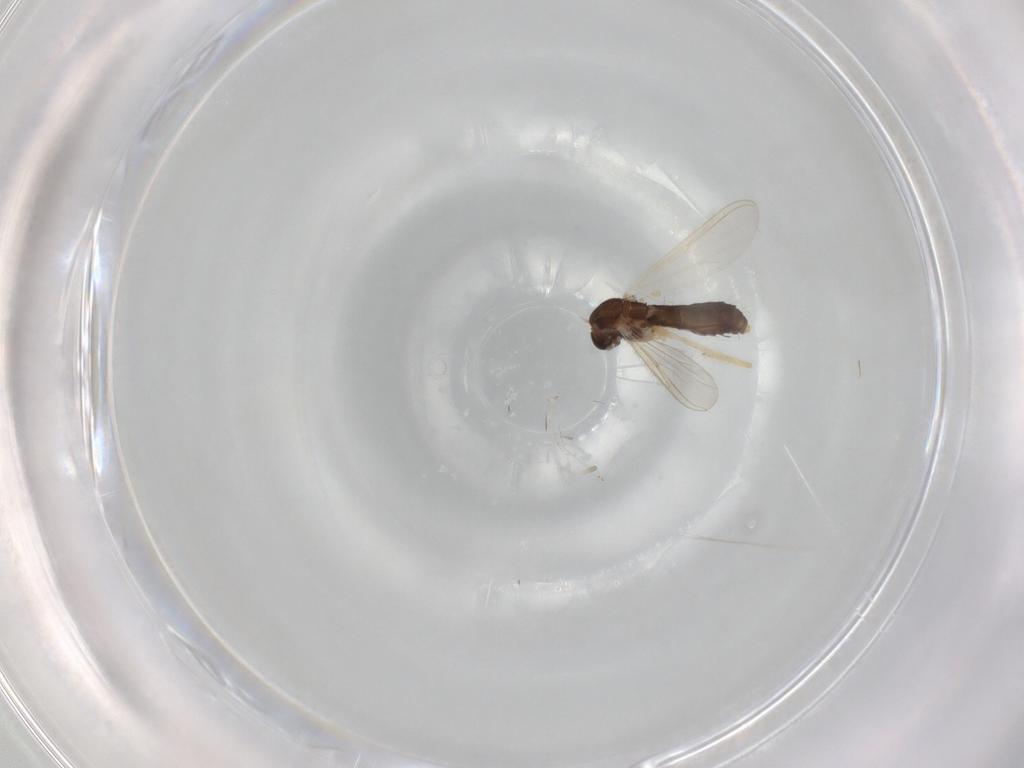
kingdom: Animalia
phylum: Arthropoda
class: Insecta
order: Diptera
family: Chironomidae
